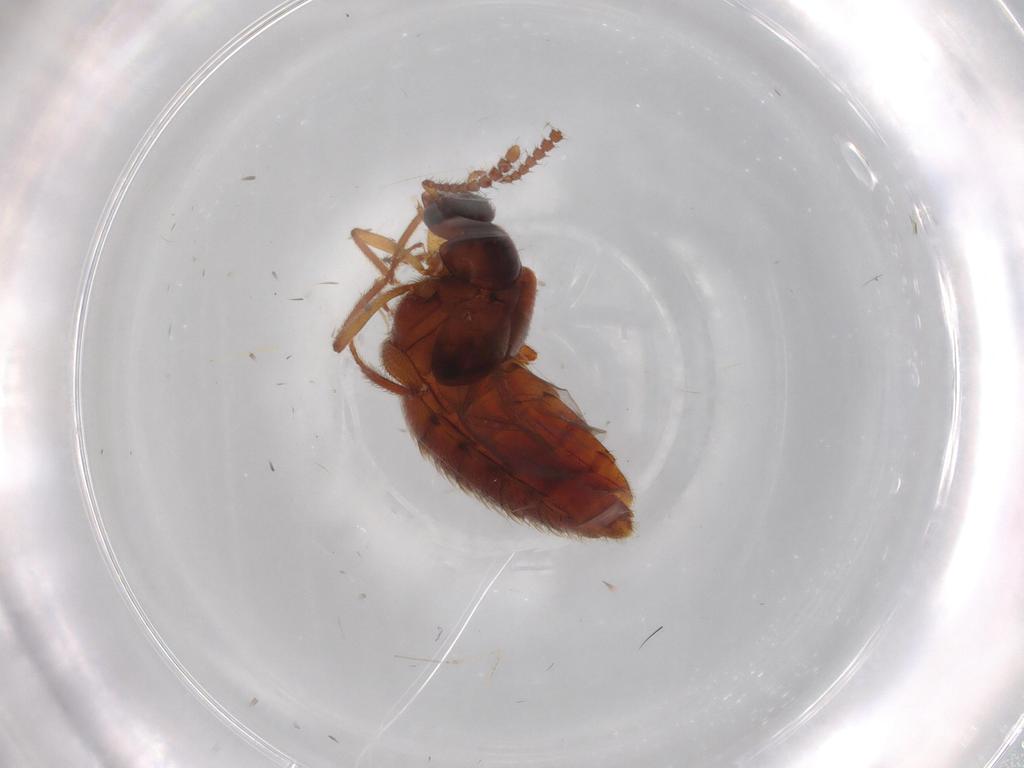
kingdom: Animalia
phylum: Arthropoda
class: Insecta
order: Coleoptera
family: Staphylinidae
